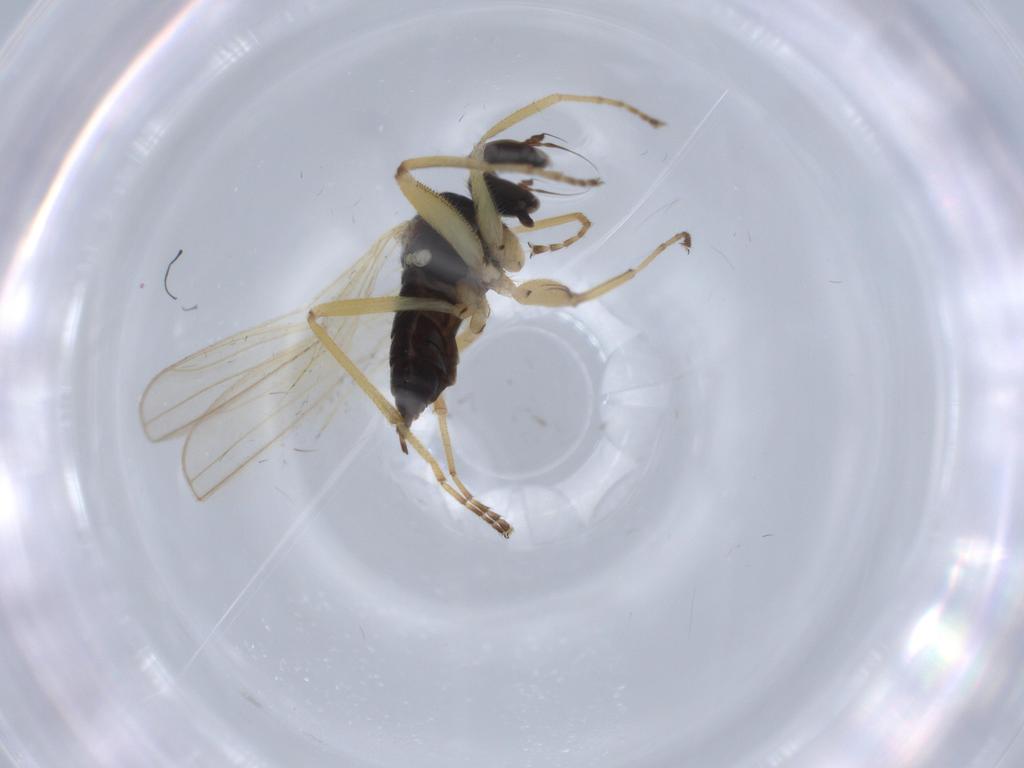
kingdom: Animalia
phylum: Arthropoda
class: Insecta
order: Diptera
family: Hybotidae
